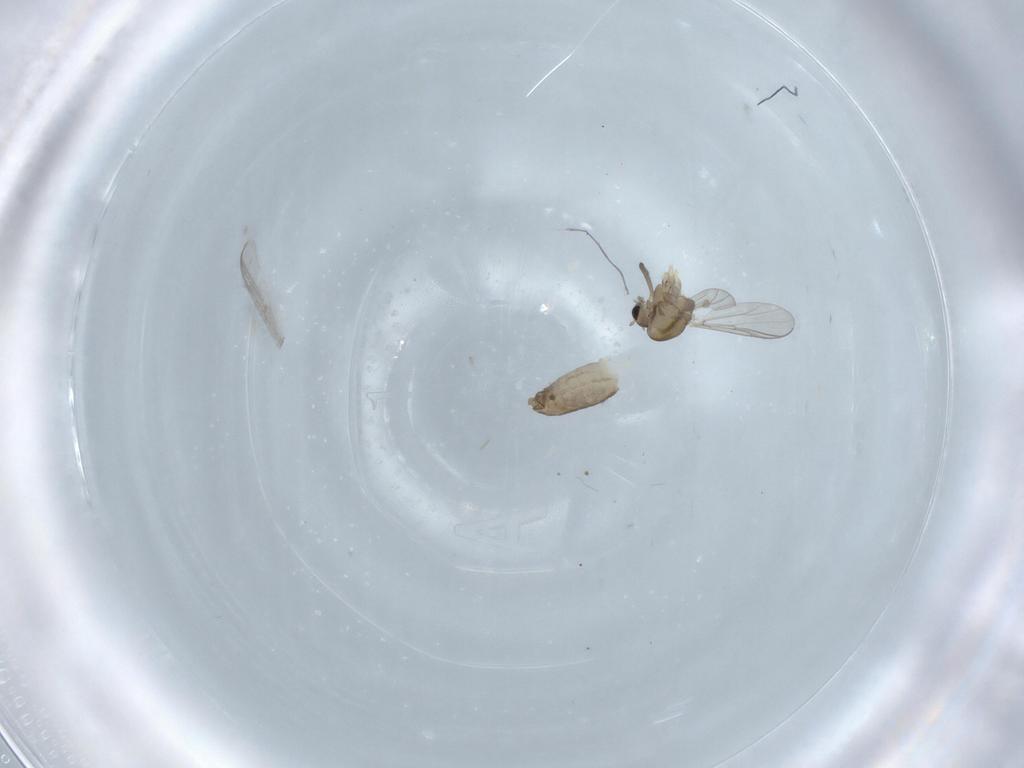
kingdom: Animalia
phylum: Arthropoda
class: Insecta
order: Diptera
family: Chironomidae
